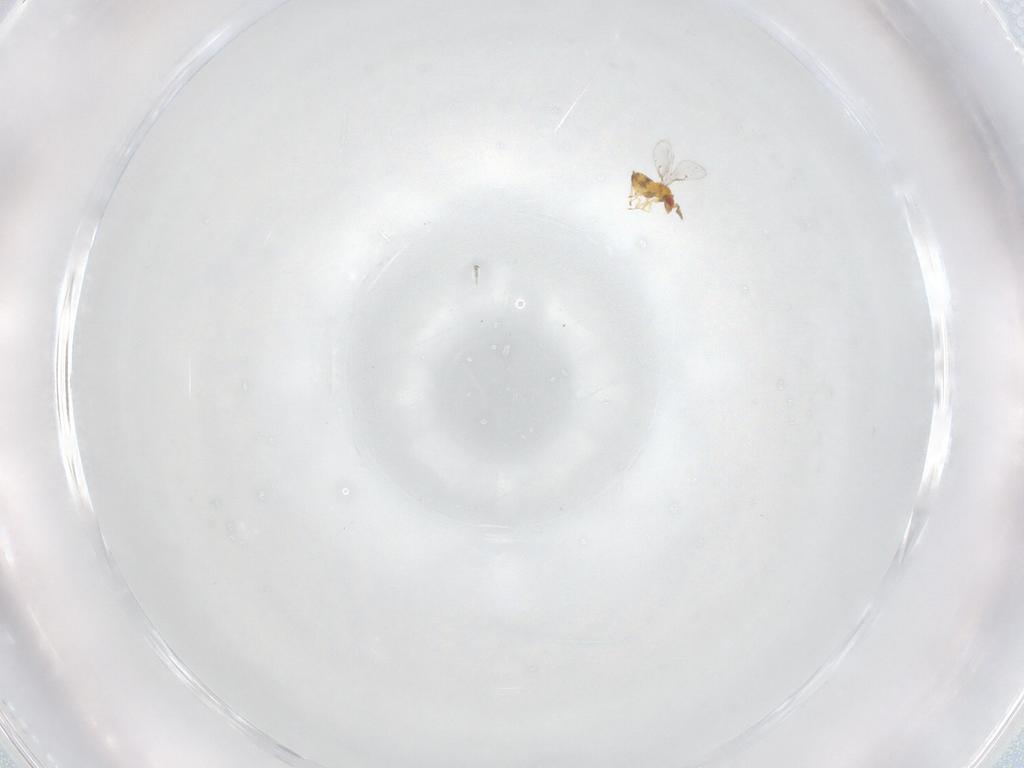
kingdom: Animalia
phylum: Arthropoda
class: Insecta
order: Hymenoptera
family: Trichogrammatidae
